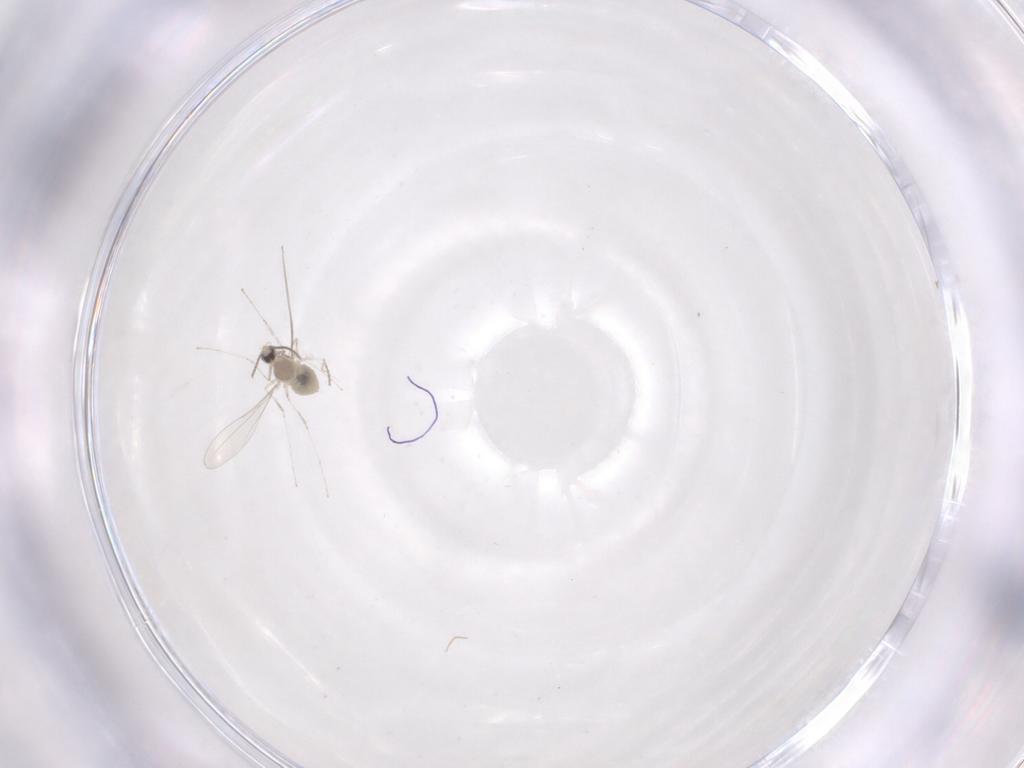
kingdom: Animalia
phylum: Arthropoda
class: Insecta
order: Diptera
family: Cecidomyiidae
